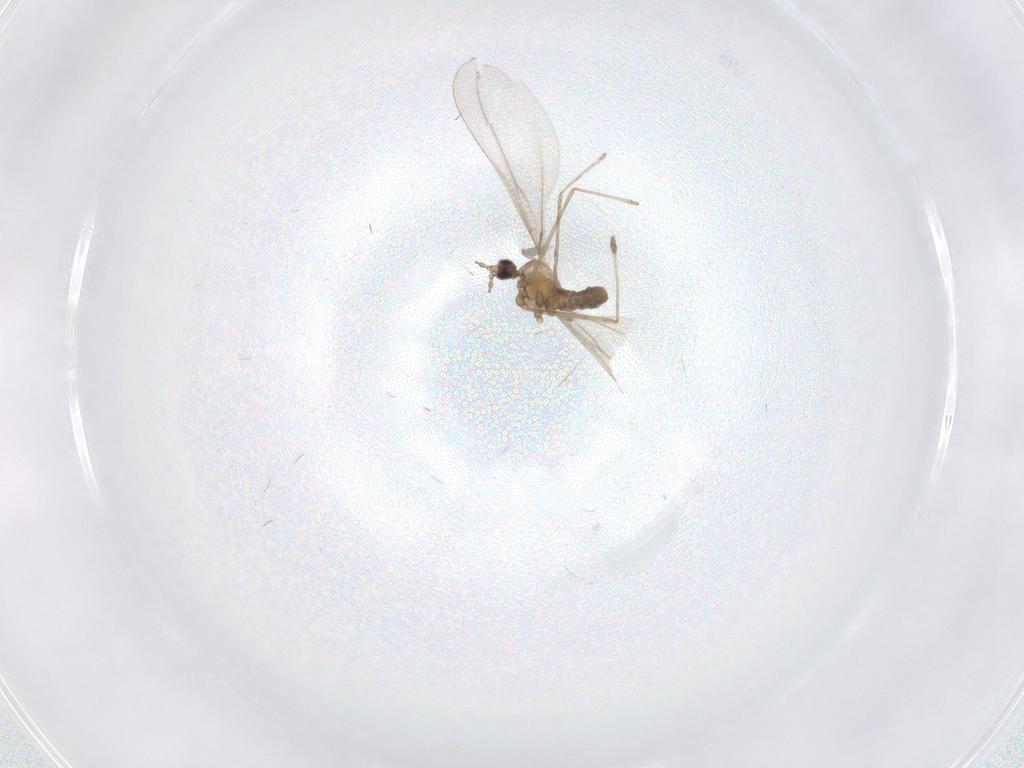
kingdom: Animalia
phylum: Arthropoda
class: Insecta
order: Diptera
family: Cecidomyiidae
